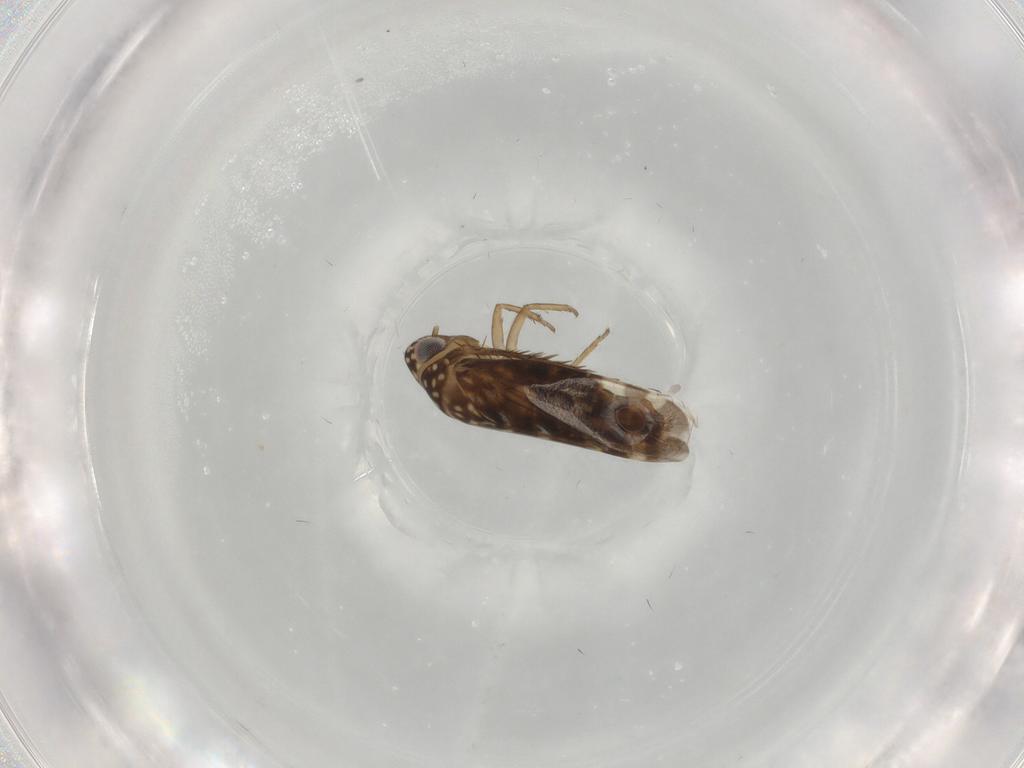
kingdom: Animalia
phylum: Arthropoda
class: Insecta
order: Hemiptera
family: Cicadellidae
